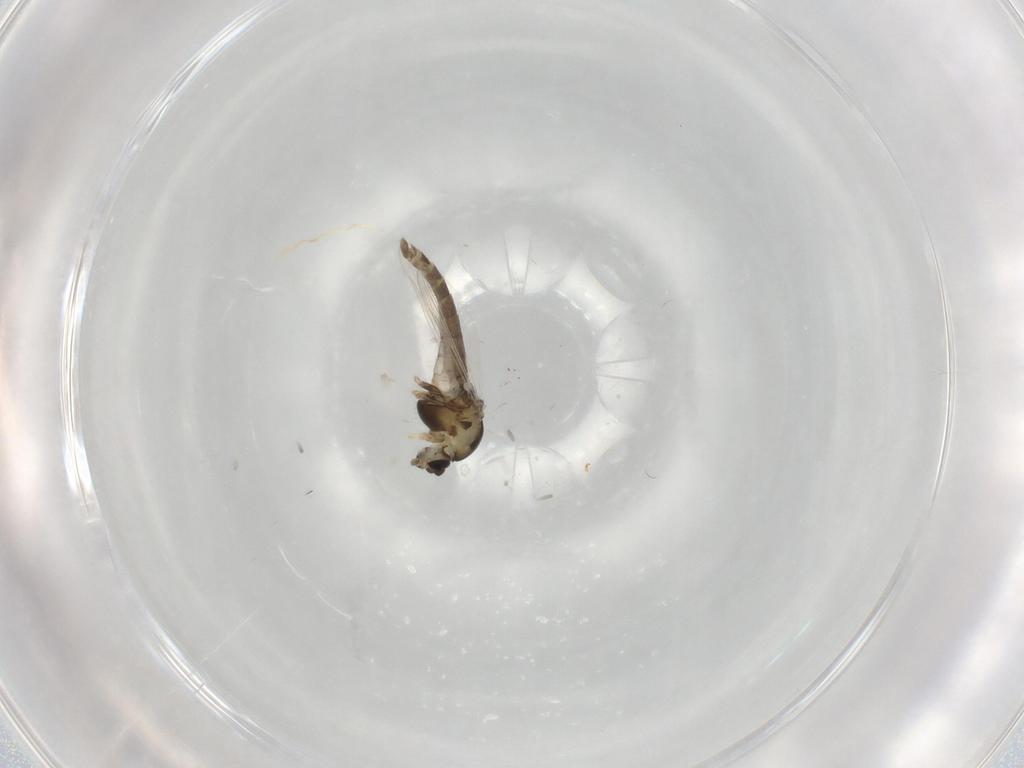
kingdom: Animalia
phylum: Arthropoda
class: Insecta
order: Diptera
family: Chironomidae
